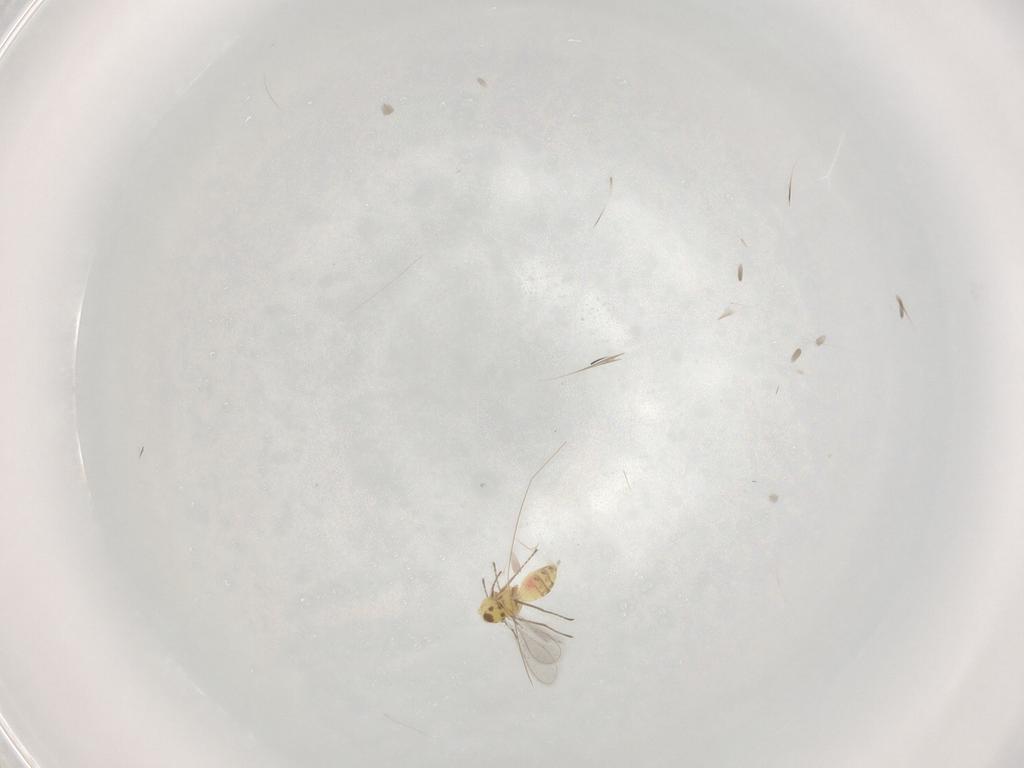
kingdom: Animalia
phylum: Arthropoda
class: Insecta
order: Hymenoptera
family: Mymaridae
